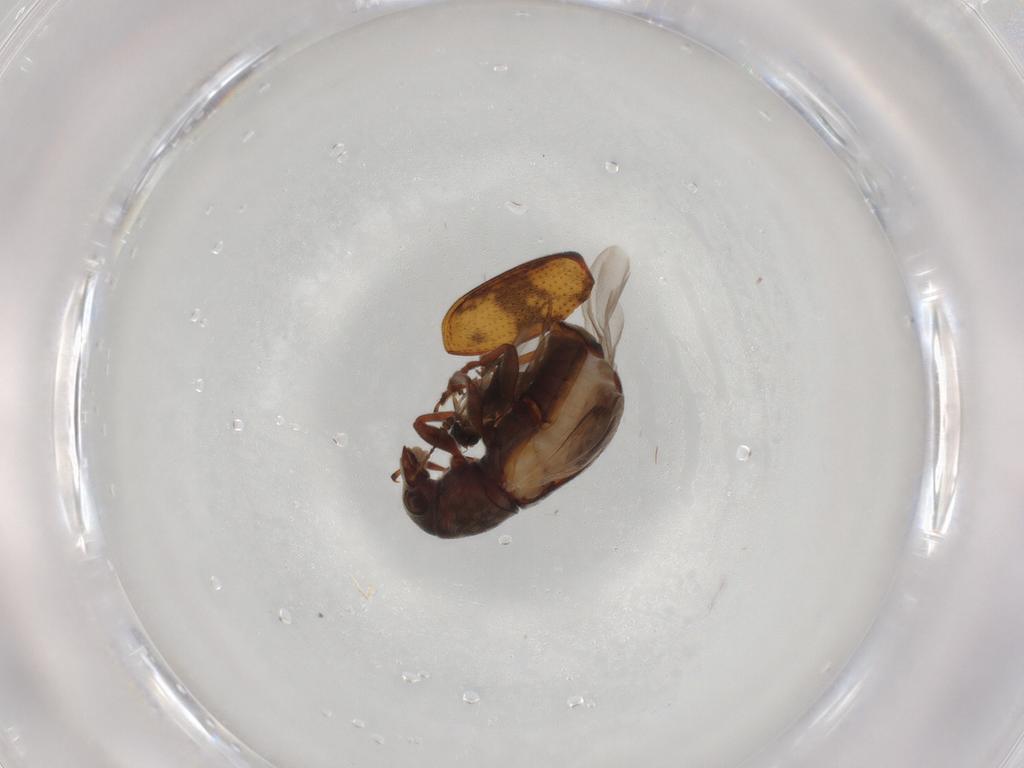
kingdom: Animalia
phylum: Arthropoda
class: Insecta
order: Coleoptera
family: Anthribidae
